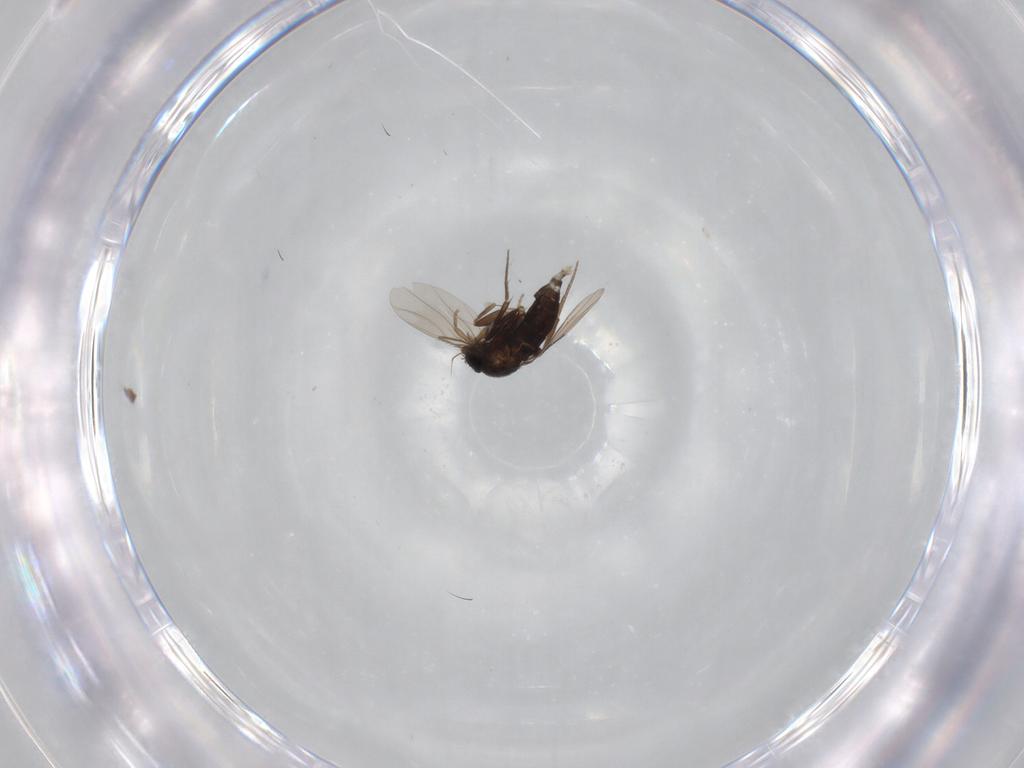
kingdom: Animalia
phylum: Arthropoda
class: Insecta
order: Diptera
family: Phoridae
